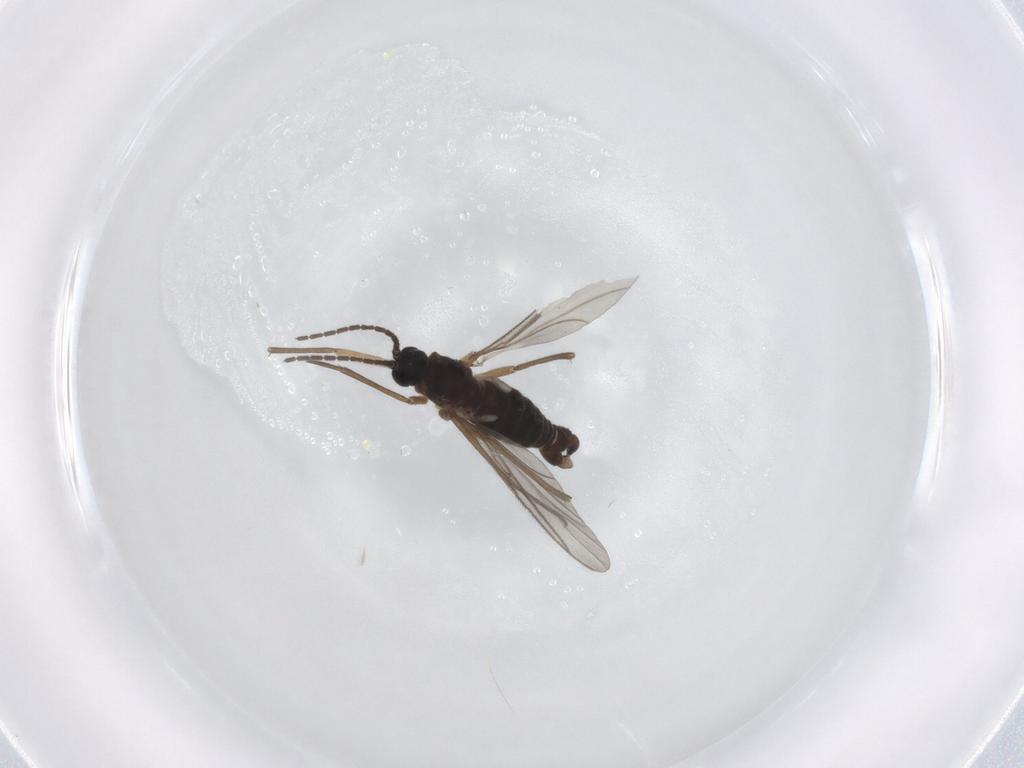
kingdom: Animalia
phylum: Arthropoda
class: Insecta
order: Diptera
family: Sciaridae
